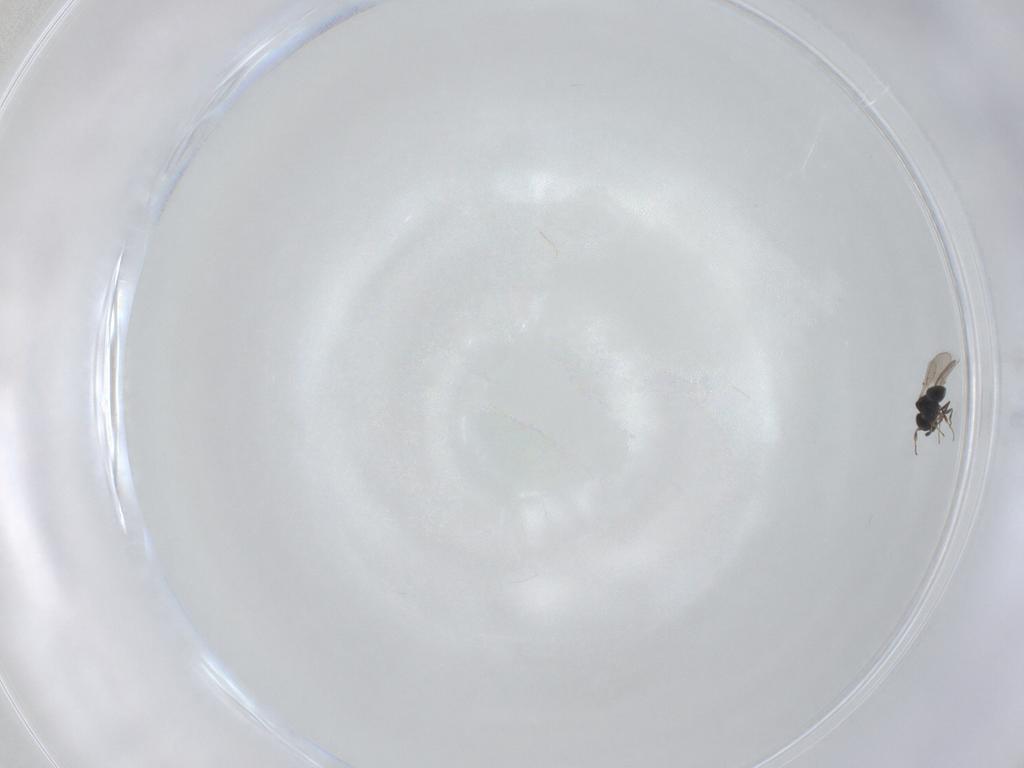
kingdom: Animalia
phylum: Arthropoda
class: Insecta
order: Hymenoptera
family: Scelionidae
